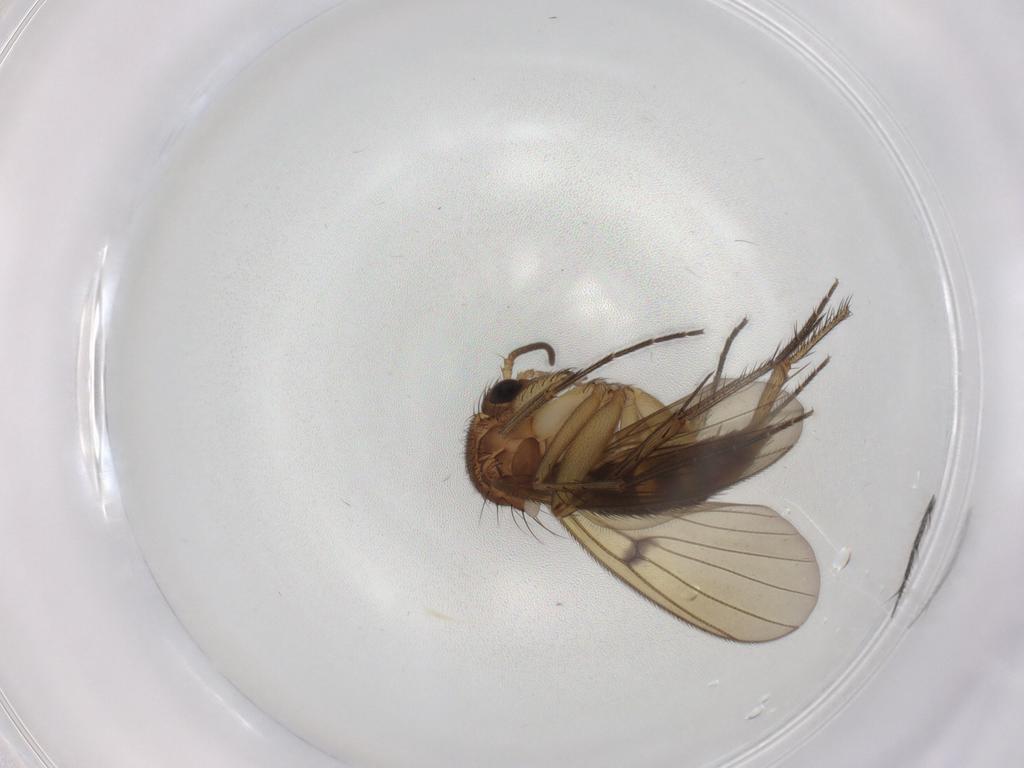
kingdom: Animalia
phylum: Arthropoda
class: Insecta
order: Diptera
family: Mycetophilidae
